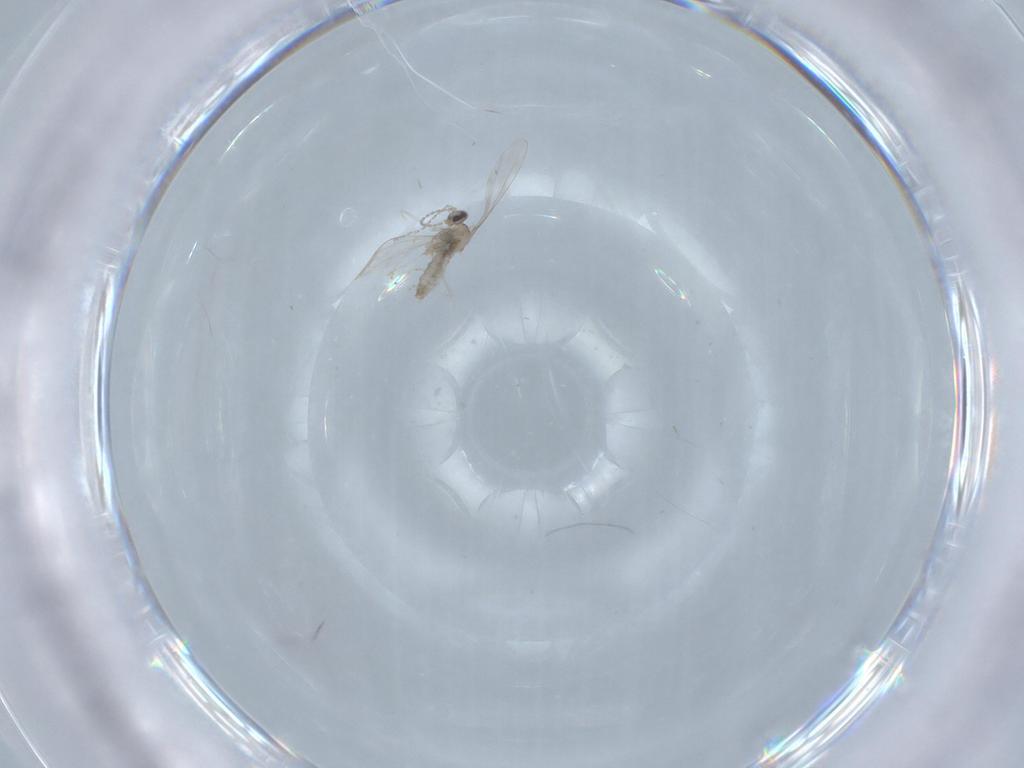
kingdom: Animalia
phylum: Arthropoda
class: Insecta
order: Diptera
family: Cecidomyiidae
